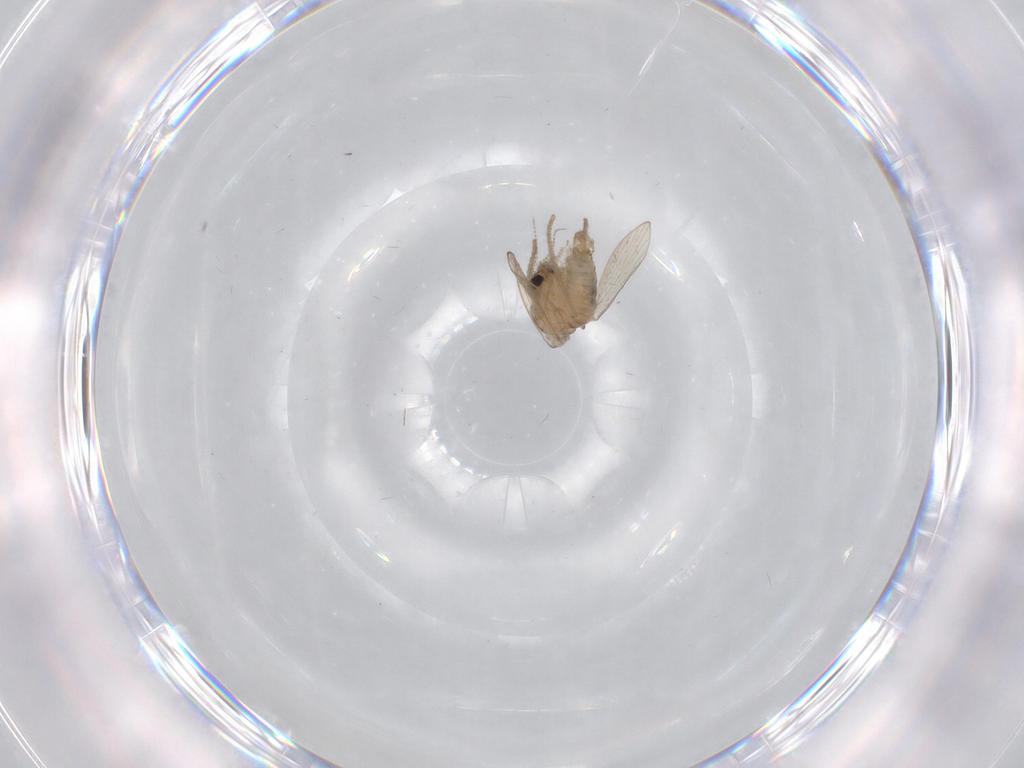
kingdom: Animalia
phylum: Arthropoda
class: Insecta
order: Diptera
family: Psychodidae
